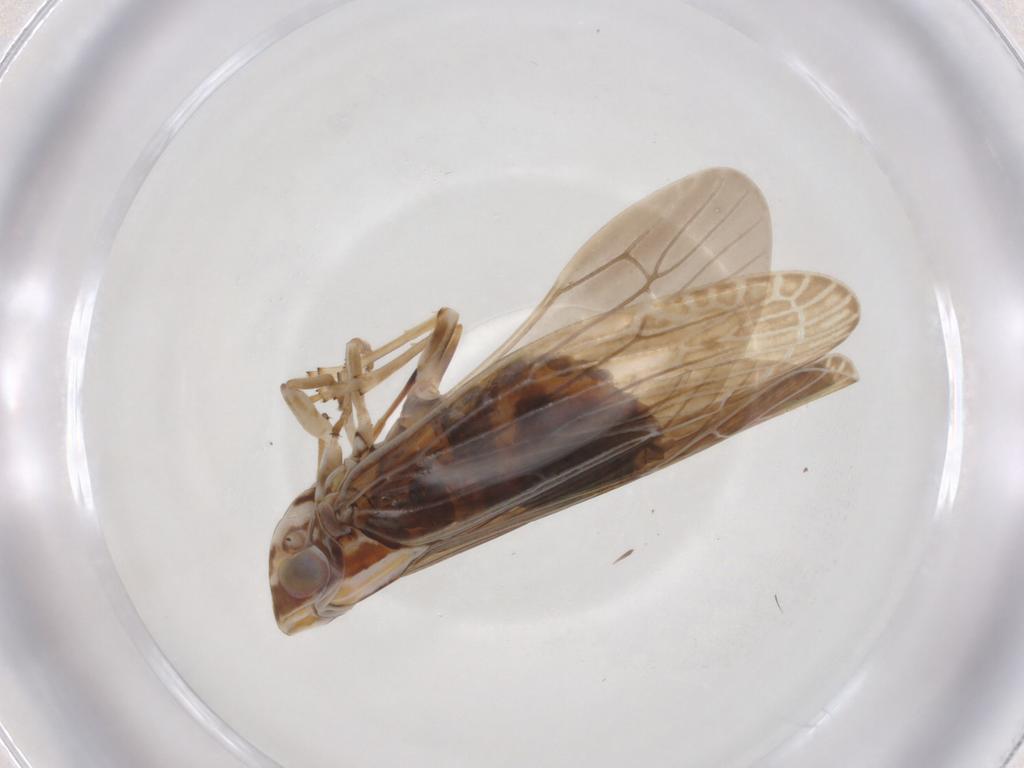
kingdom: Animalia
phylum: Arthropoda
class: Insecta
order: Hemiptera
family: Achilidae
